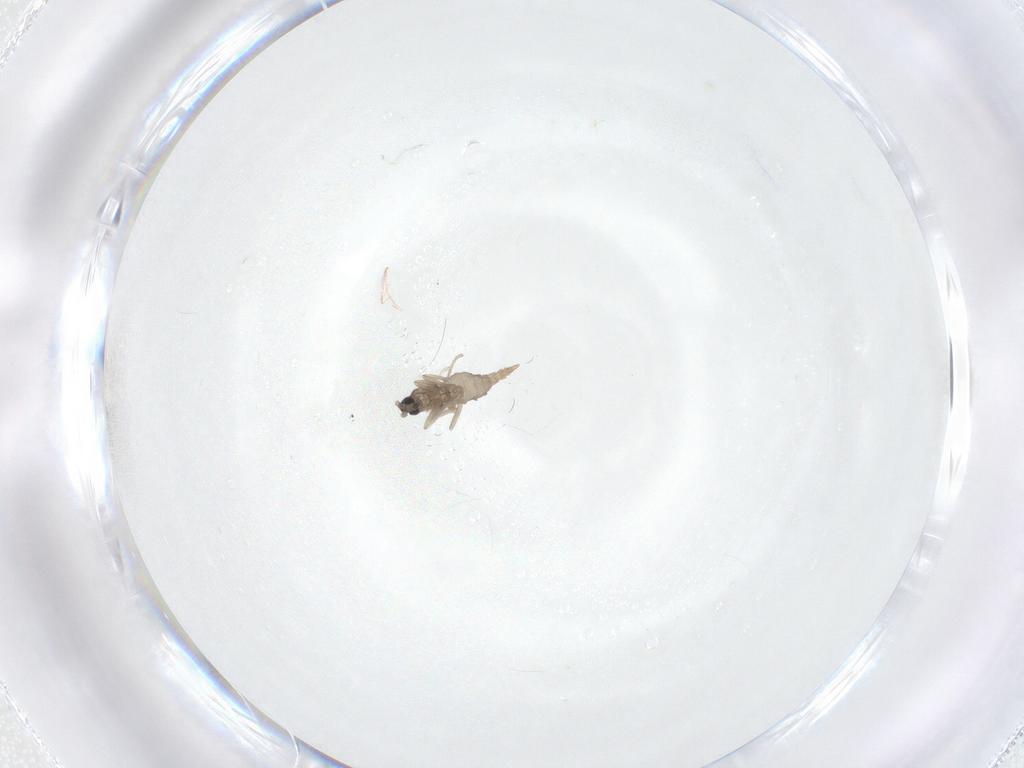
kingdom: Animalia
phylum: Arthropoda
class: Insecta
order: Diptera
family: Cecidomyiidae
